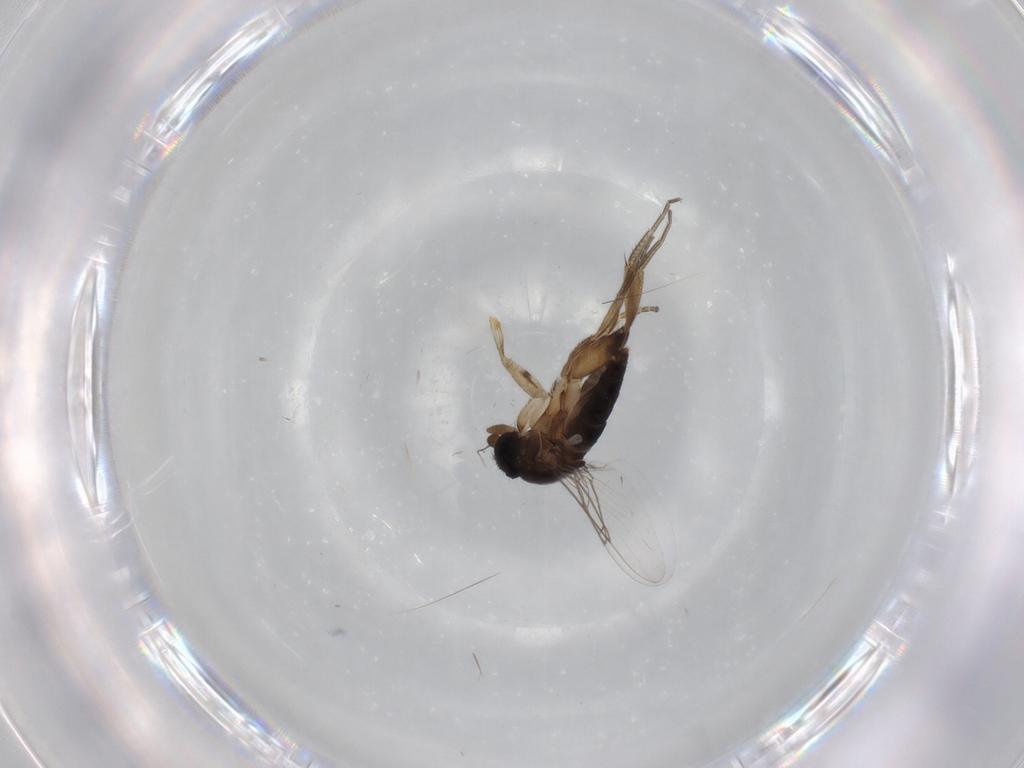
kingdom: Animalia
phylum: Arthropoda
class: Insecta
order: Diptera
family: Phoridae
